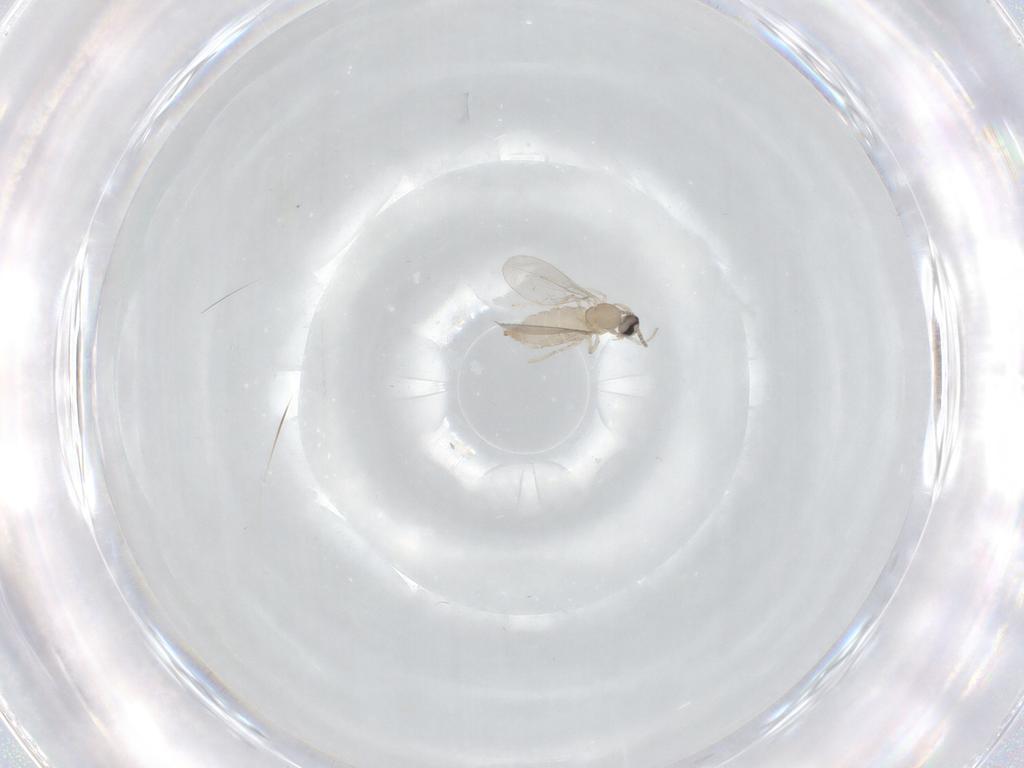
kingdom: Animalia
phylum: Arthropoda
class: Insecta
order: Diptera
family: Cecidomyiidae
